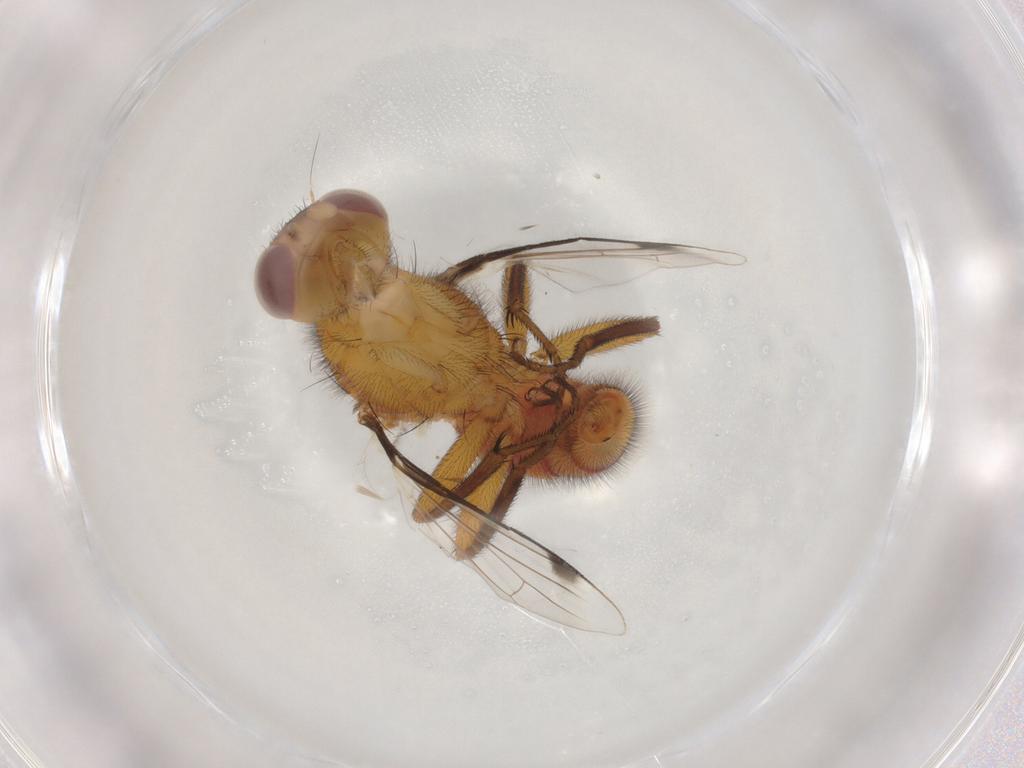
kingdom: Animalia
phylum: Arthropoda
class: Insecta
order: Diptera
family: Richardiidae
